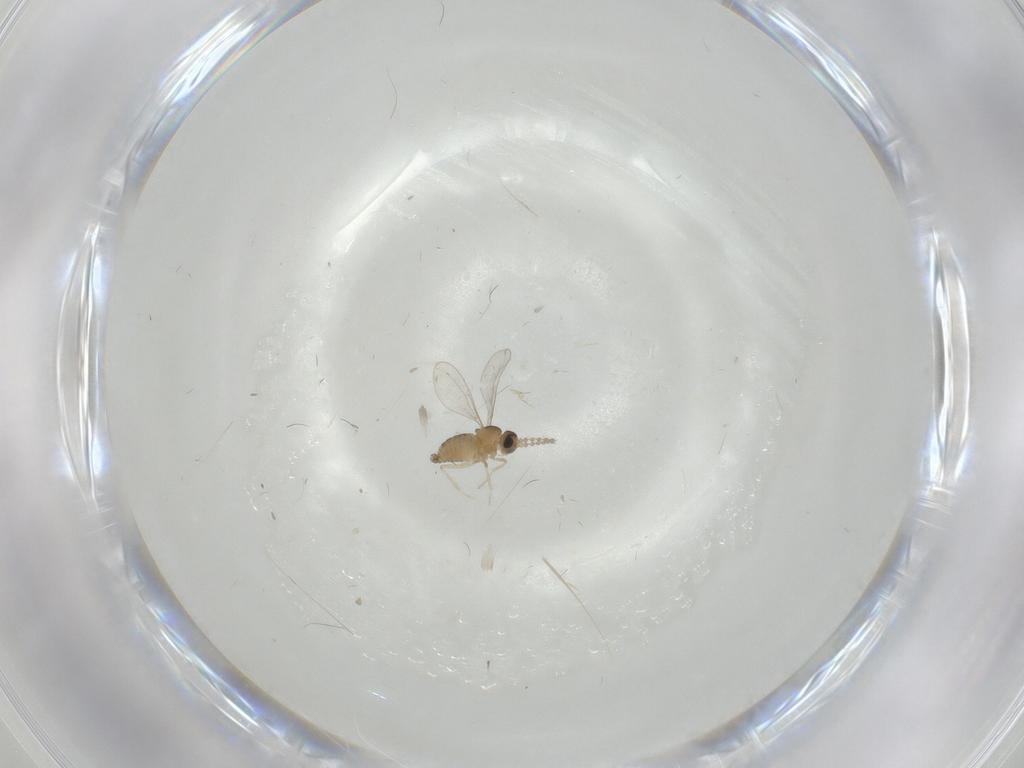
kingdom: Animalia
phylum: Arthropoda
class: Insecta
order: Diptera
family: Cecidomyiidae
